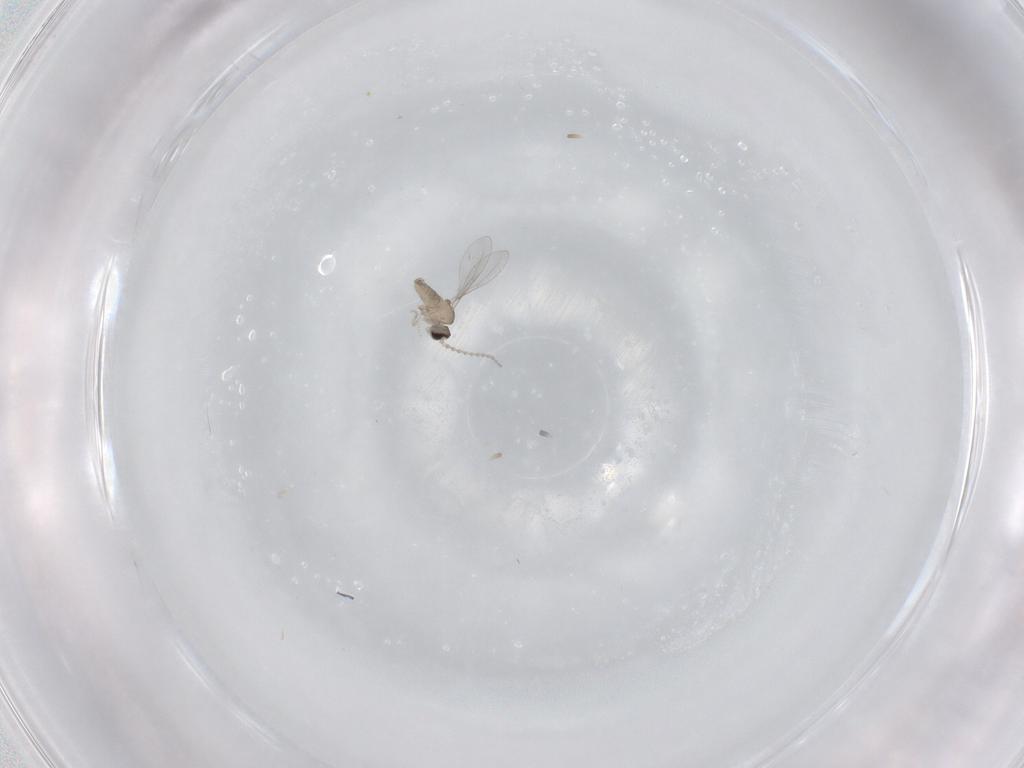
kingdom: Animalia
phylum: Arthropoda
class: Insecta
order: Diptera
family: Cecidomyiidae
